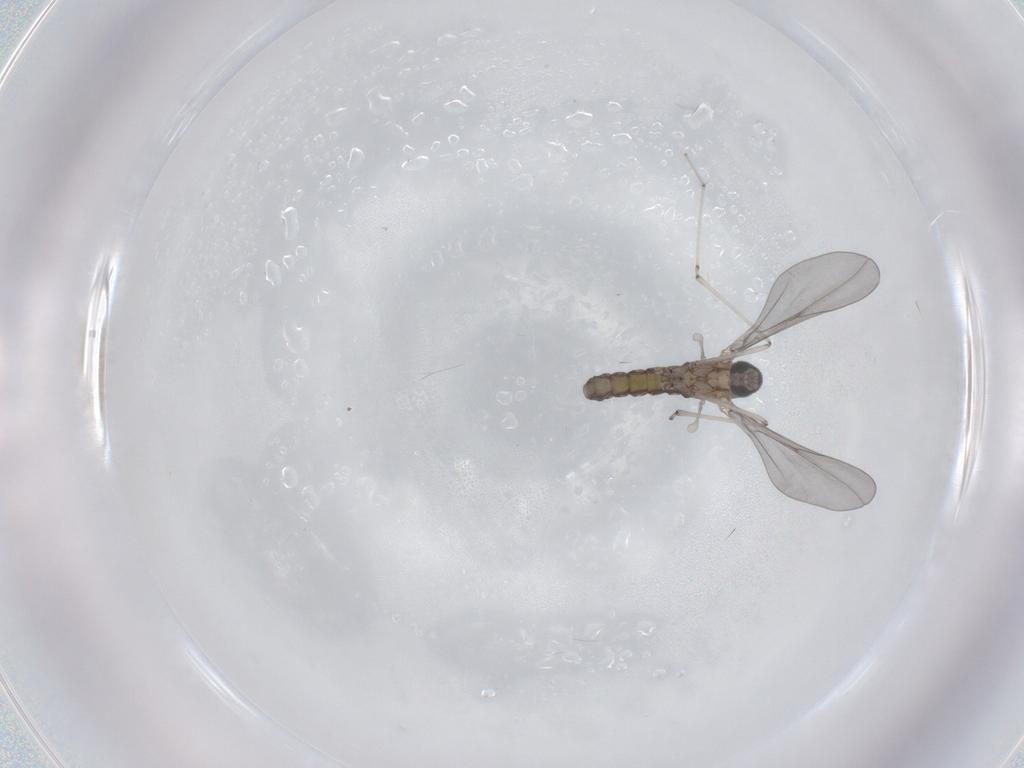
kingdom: Animalia
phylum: Arthropoda
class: Insecta
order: Diptera
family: Cecidomyiidae
